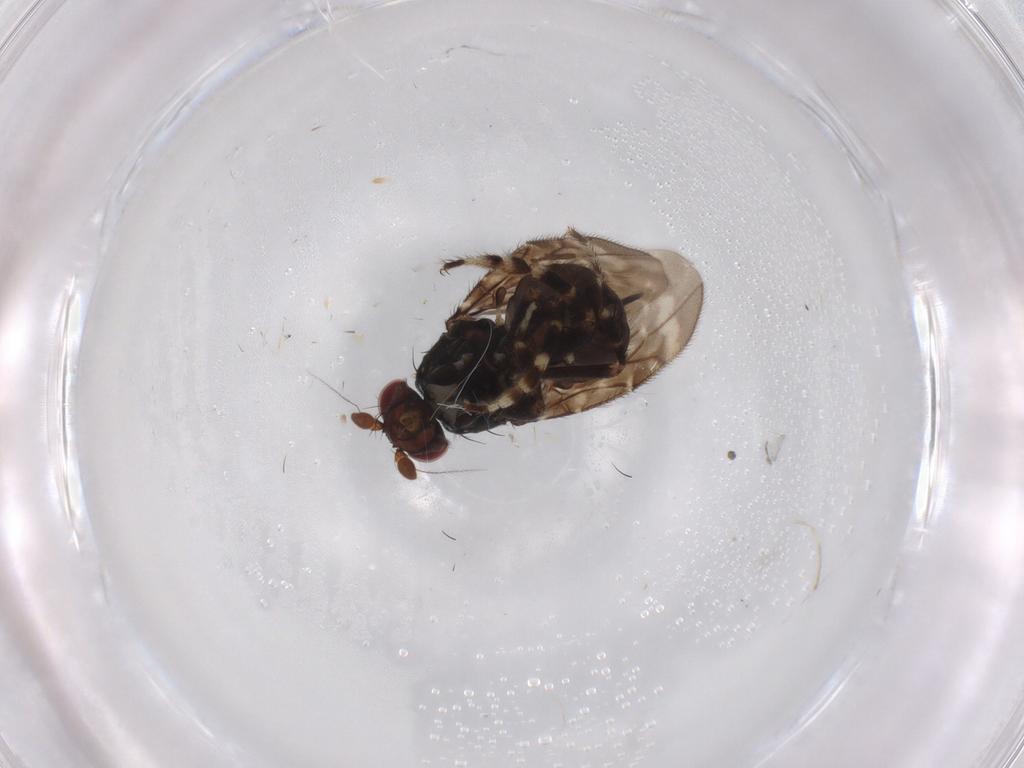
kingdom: Animalia
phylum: Arthropoda
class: Insecta
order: Diptera
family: Sphaeroceridae
